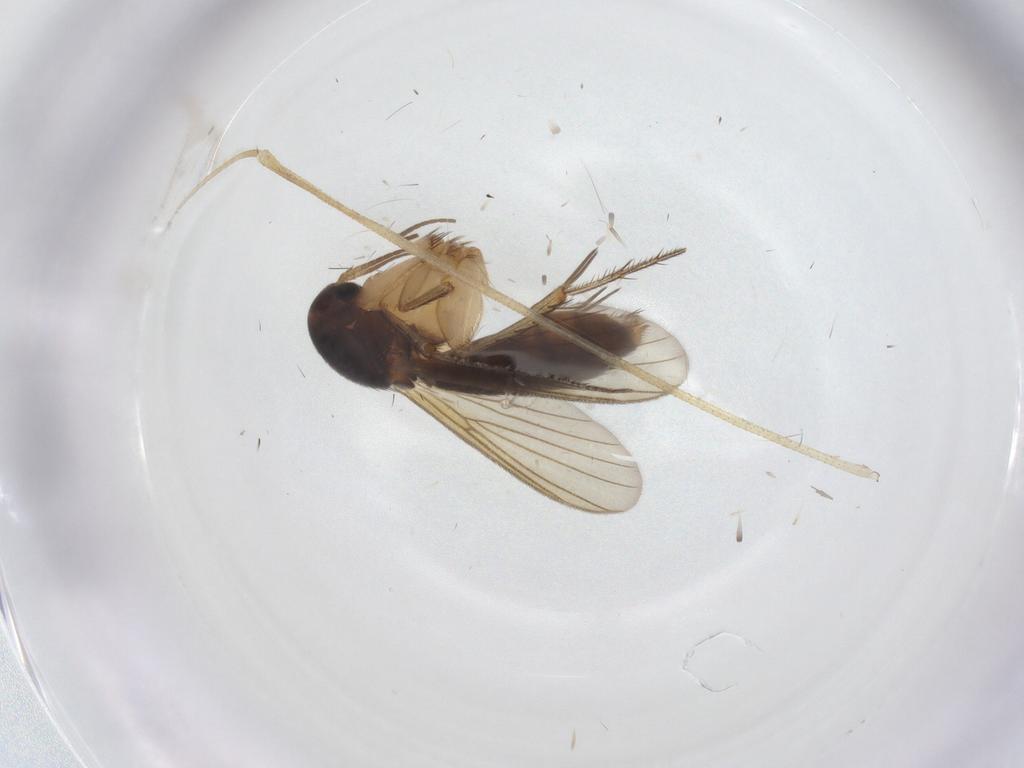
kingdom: Animalia
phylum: Arthropoda
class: Insecta
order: Diptera
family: Mycetophilidae
